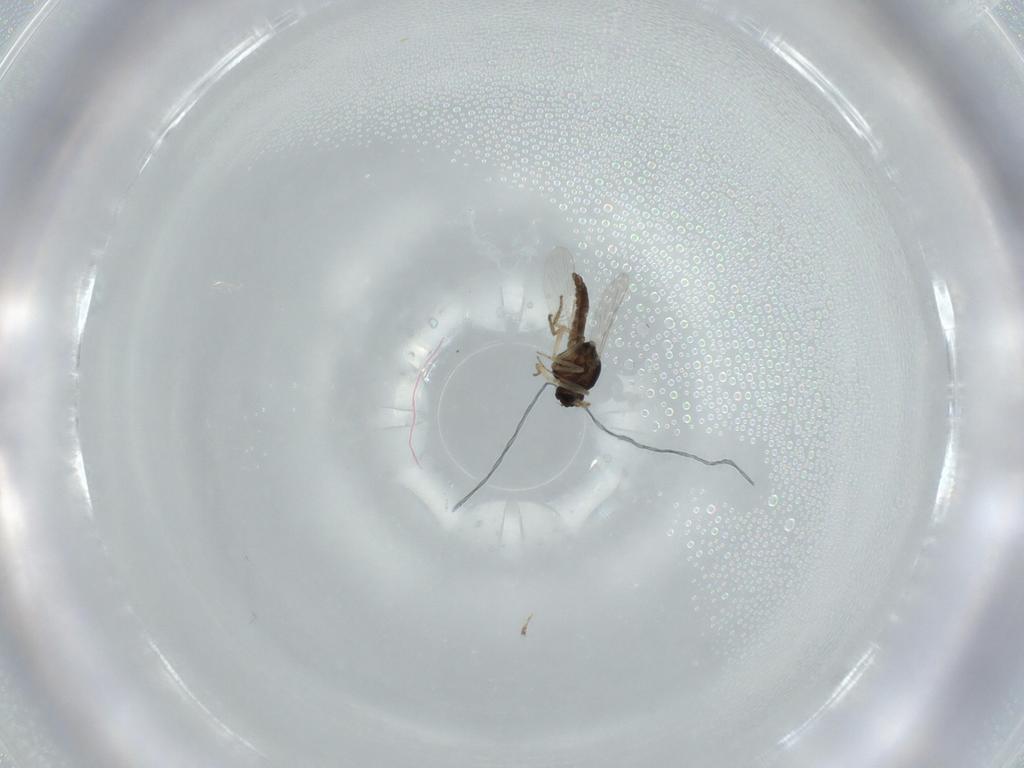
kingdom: Animalia
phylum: Arthropoda
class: Insecta
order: Diptera
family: Ceratopogonidae
